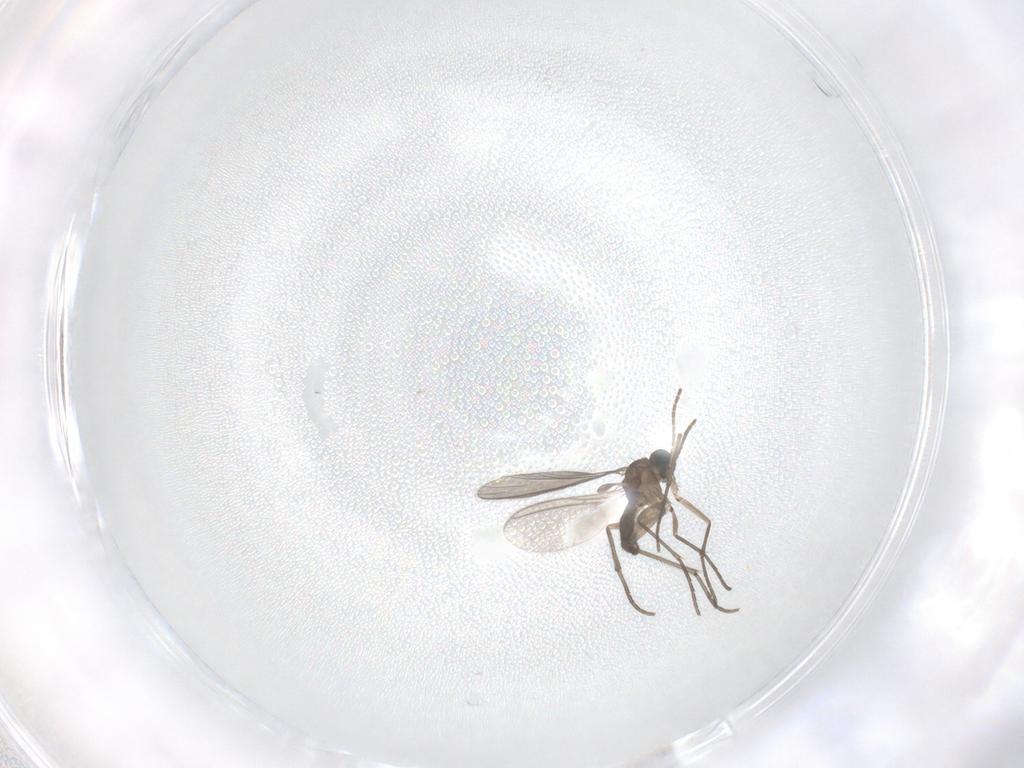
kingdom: Animalia
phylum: Arthropoda
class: Insecta
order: Diptera
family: Sciaridae
